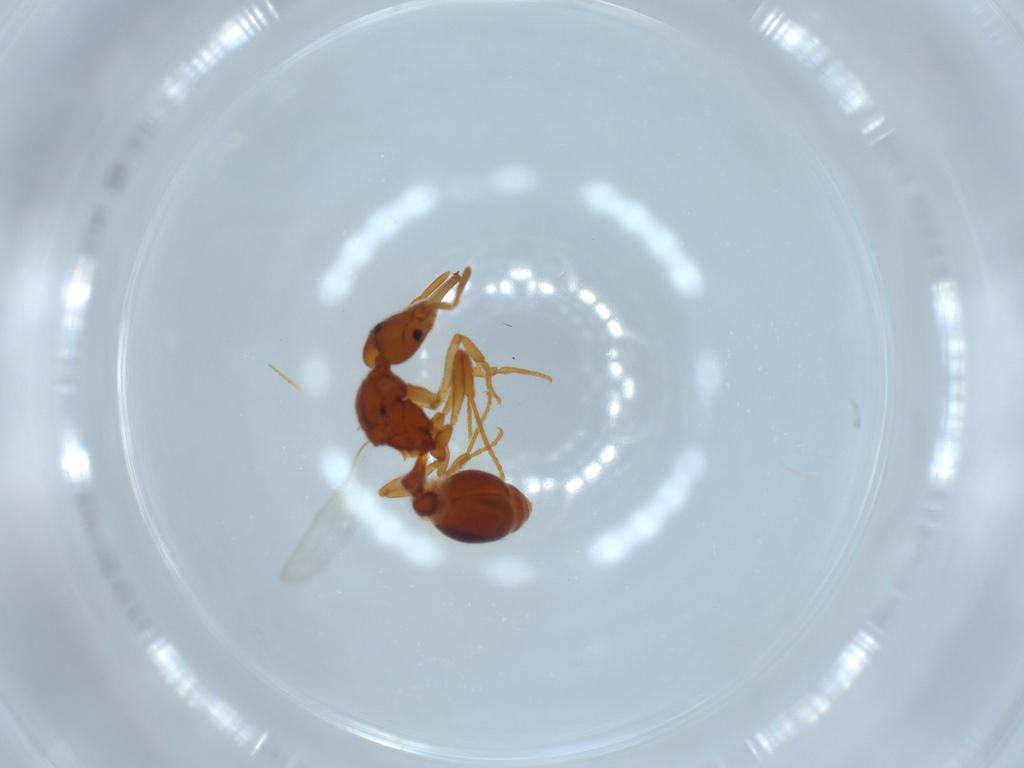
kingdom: Animalia
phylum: Arthropoda
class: Insecta
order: Hymenoptera
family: Formicidae
